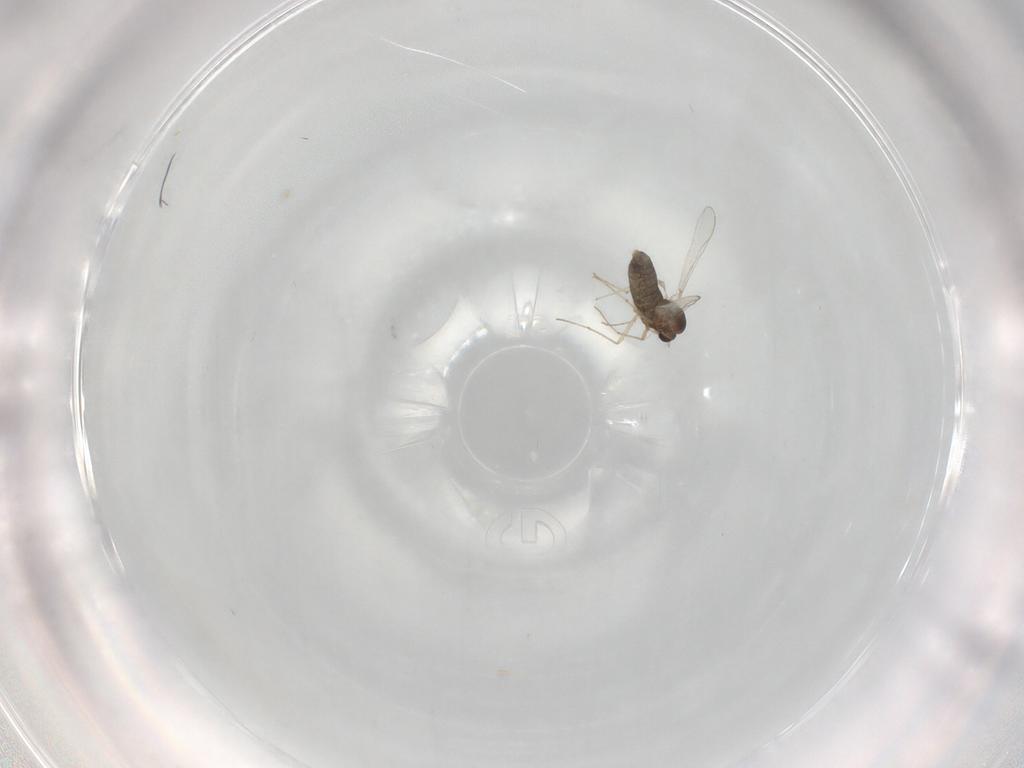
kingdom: Animalia
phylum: Arthropoda
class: Insecta
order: Diptera
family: Chironomidae
